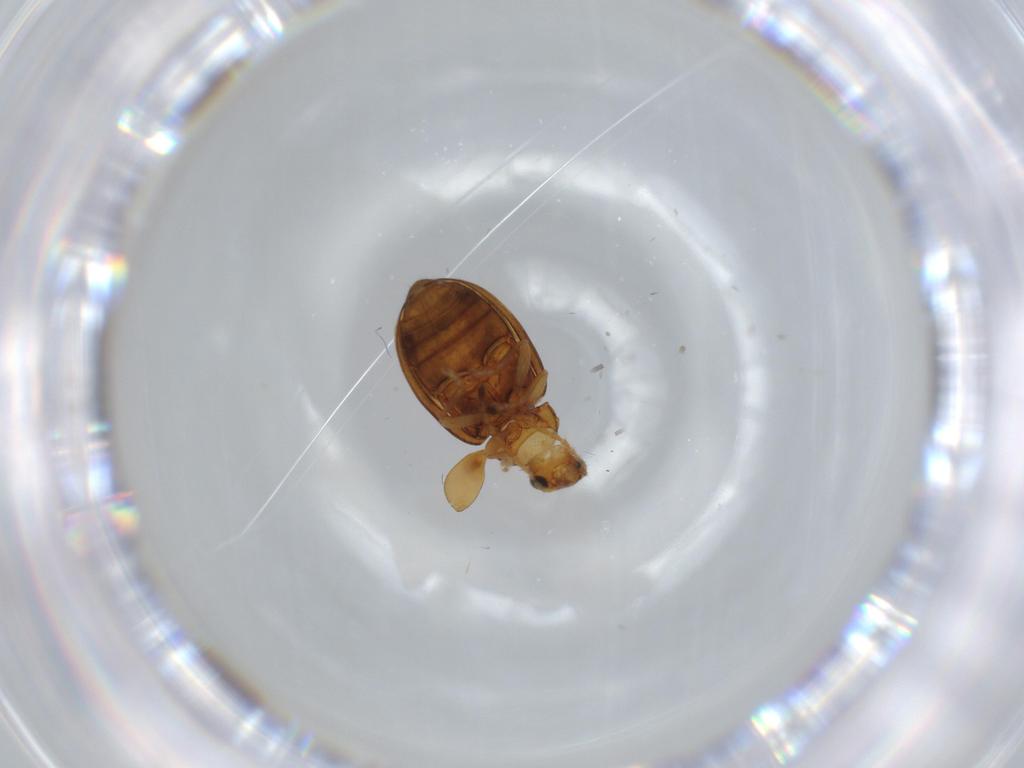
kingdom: Animalia
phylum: Arthropoda
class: Insecta
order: Coleoptera
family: Chrysomelidae
